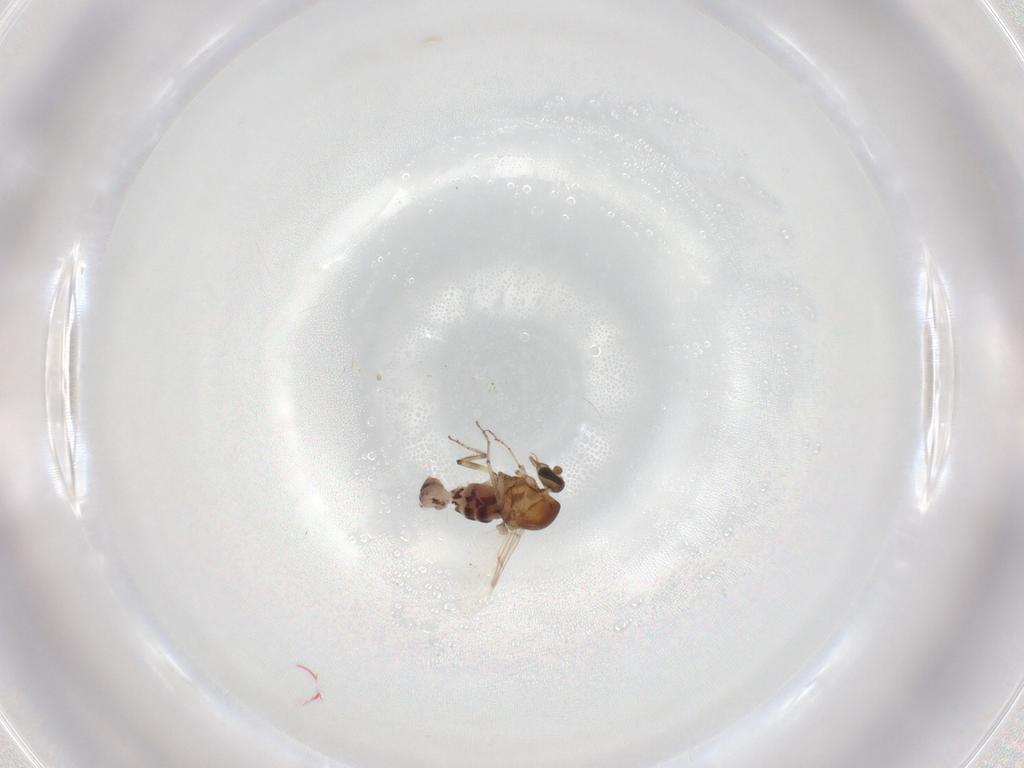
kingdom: Animalia
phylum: Arthropoda
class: Insecta
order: Diptera
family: Ceratopogonidae
